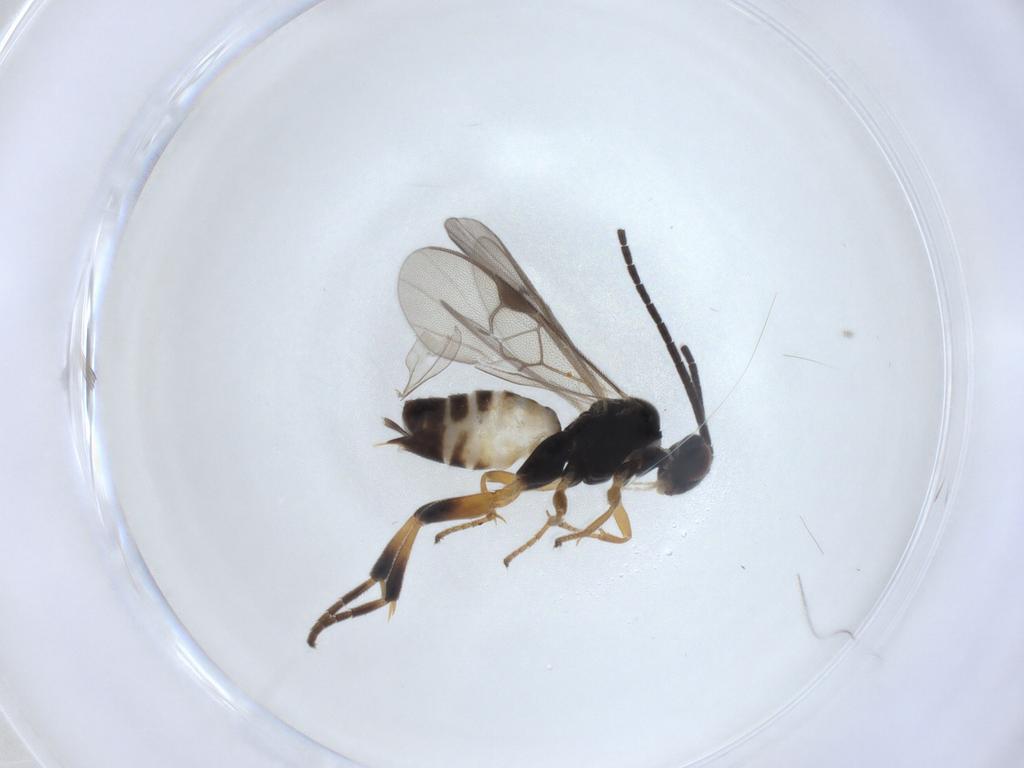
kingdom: Animalia
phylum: Arthropoda
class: Insecta
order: Hymenoptera
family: Braconidae
